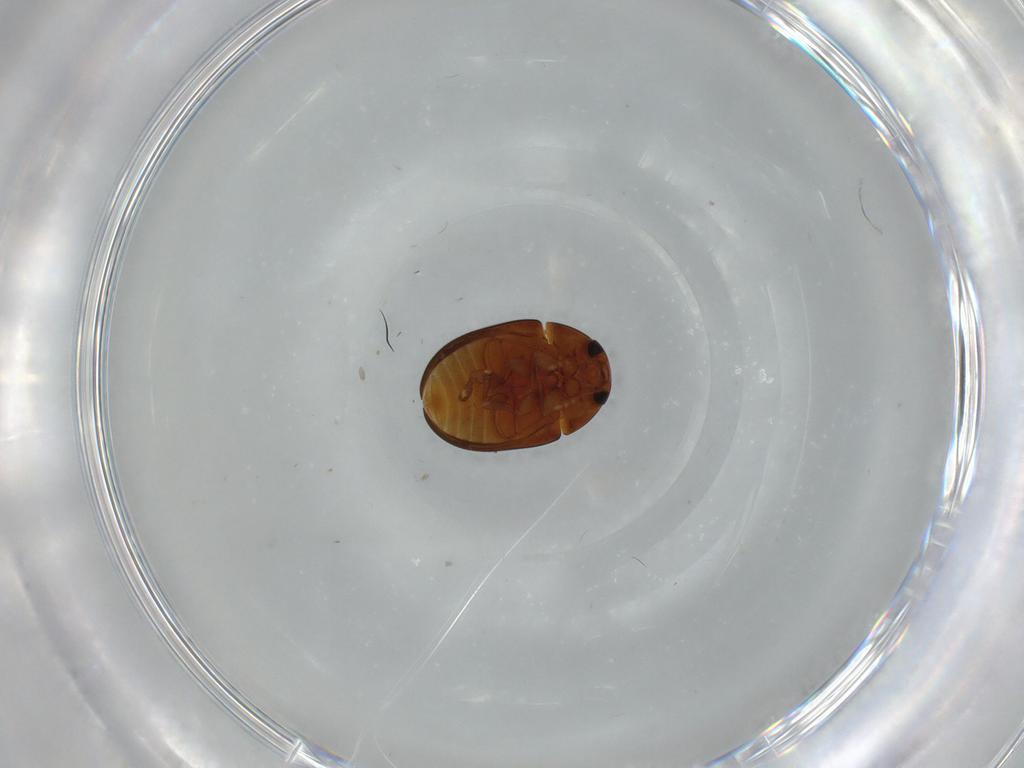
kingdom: Animalia
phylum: Arthropoda
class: Insecta
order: Coleoptera
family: Phalacridae
